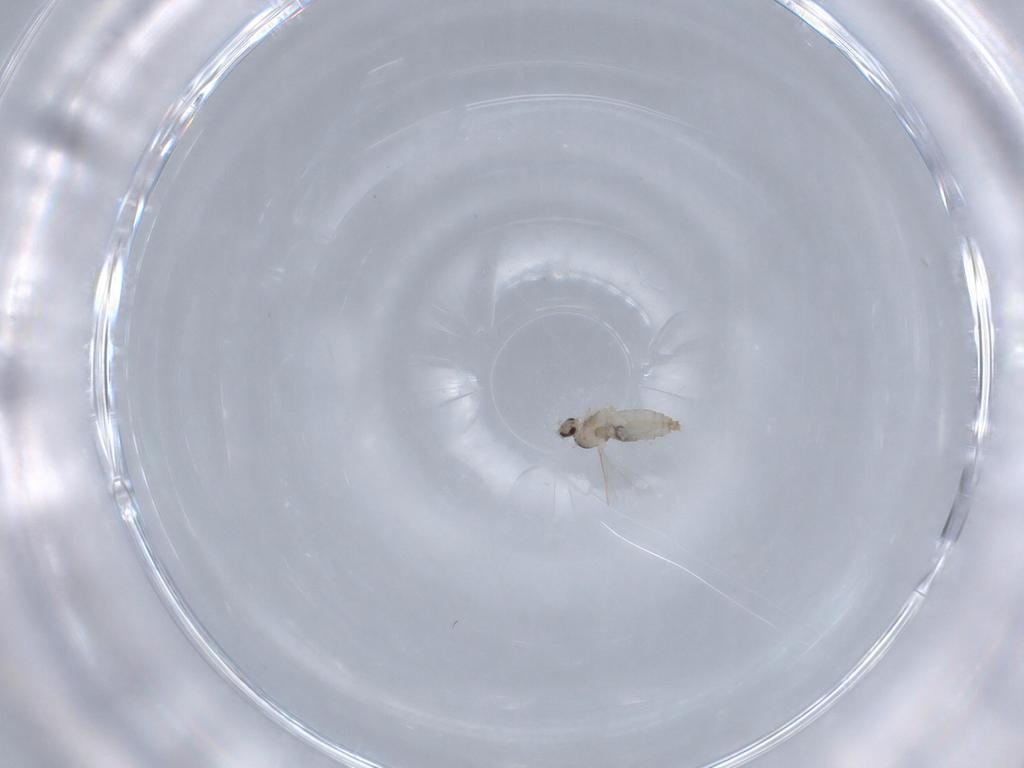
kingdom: Animalia
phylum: Arthropoda
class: Insecta
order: Diptera
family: Cecidomyiidae
